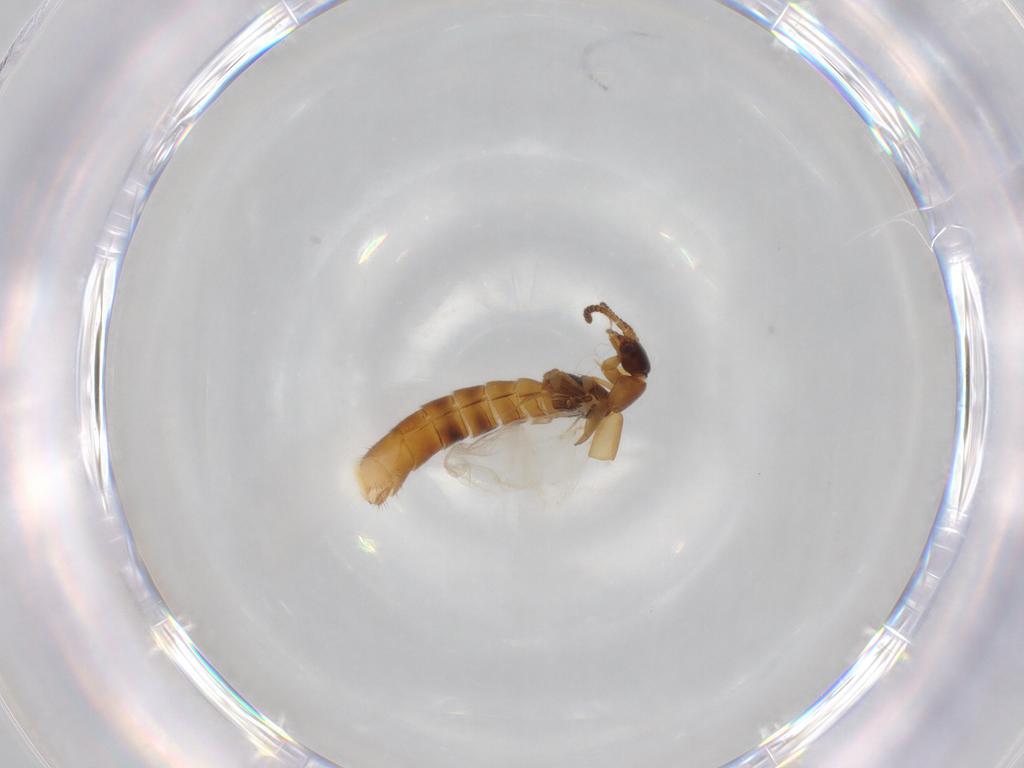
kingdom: Animalia
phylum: Arthropoda
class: Insecta
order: Coleoptera
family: Staphylinidae
